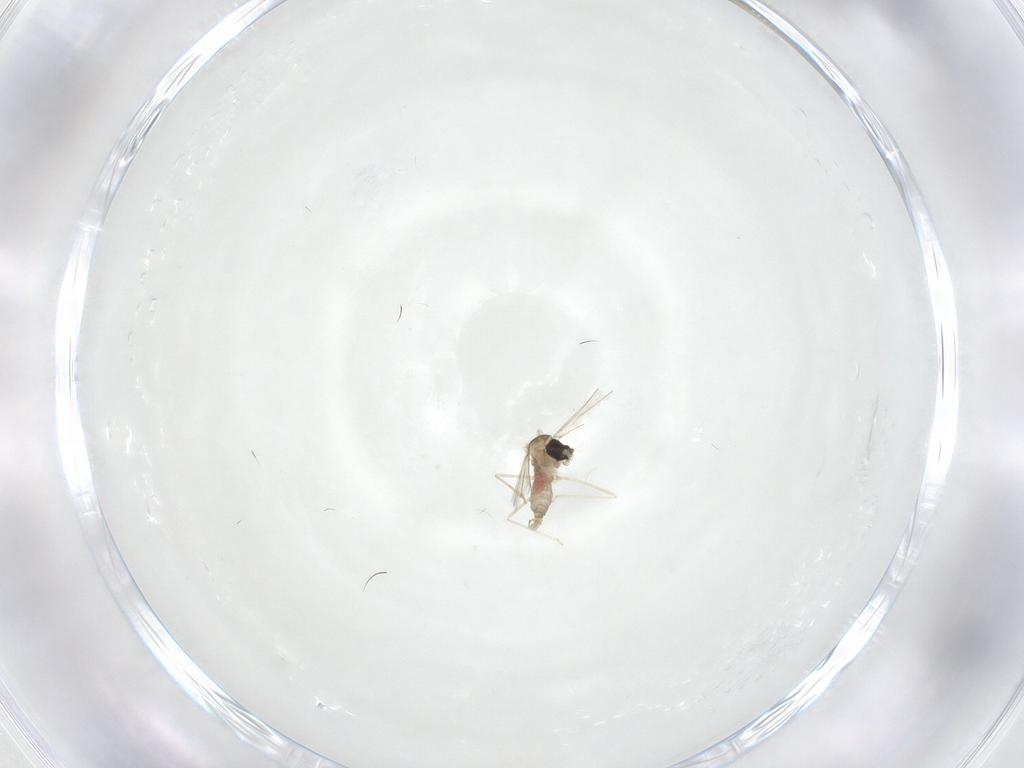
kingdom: Animalia
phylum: Arthropoda
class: Insecta
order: Diptera
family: Cecidomyiidae
